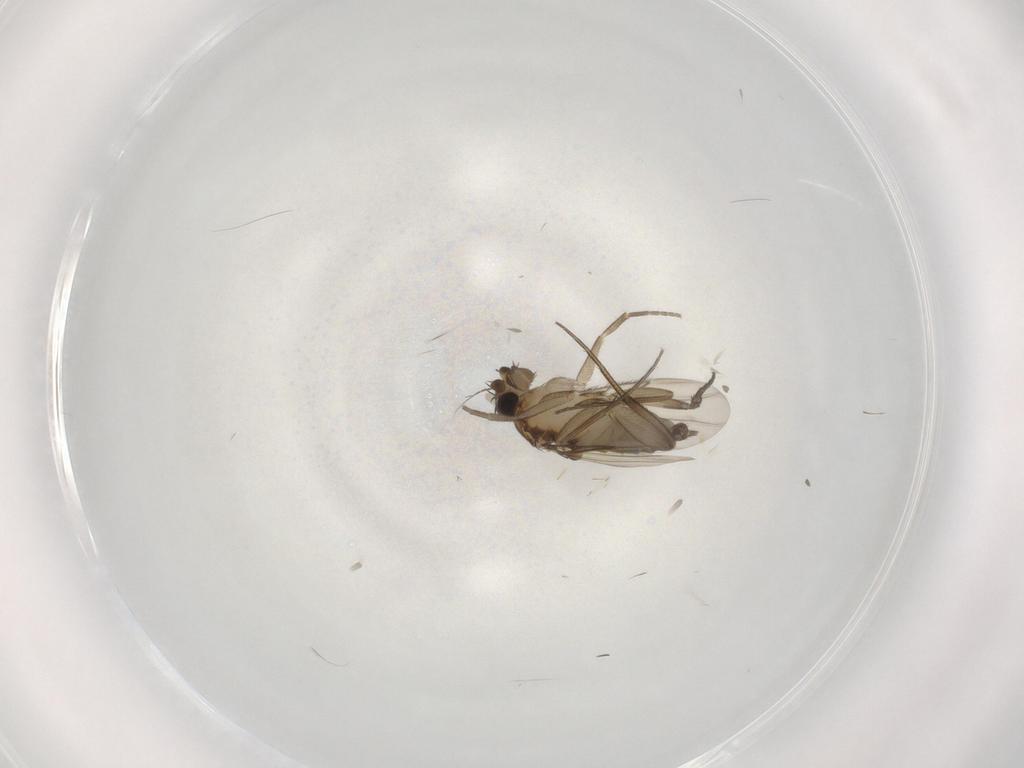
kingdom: Animalia
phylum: Arthropoda
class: Insecta
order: Diptera
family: Phoridae
